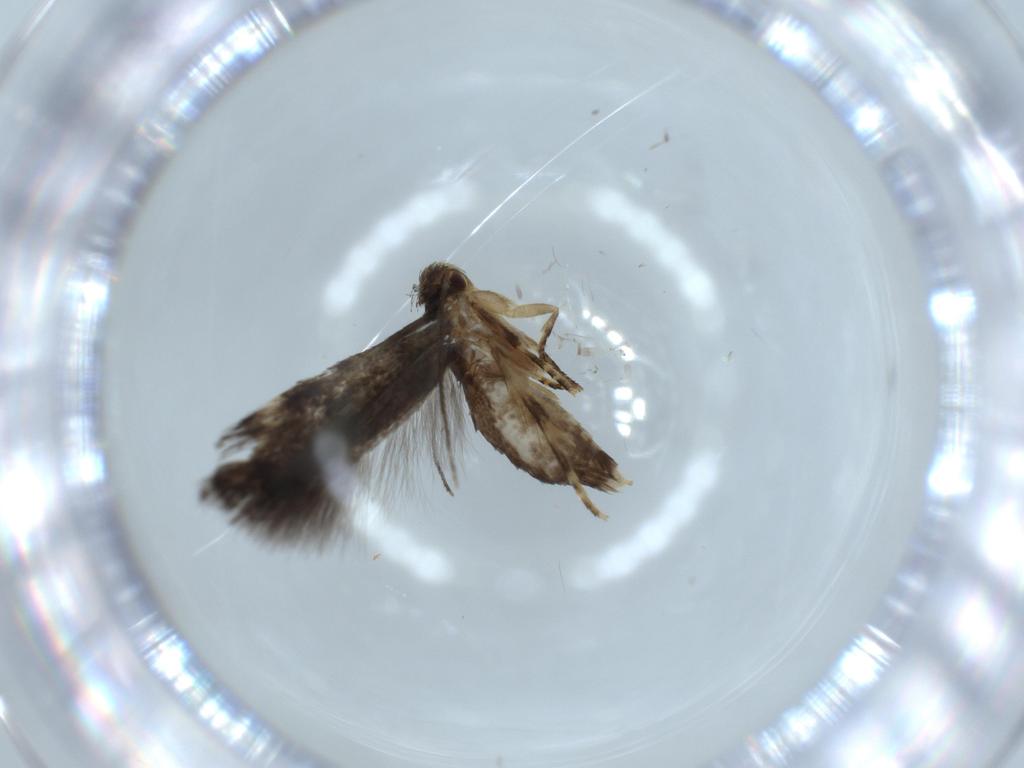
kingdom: Animalia
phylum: Arthropoda
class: Insecta
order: Lepidoptera
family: Gelechiidae
